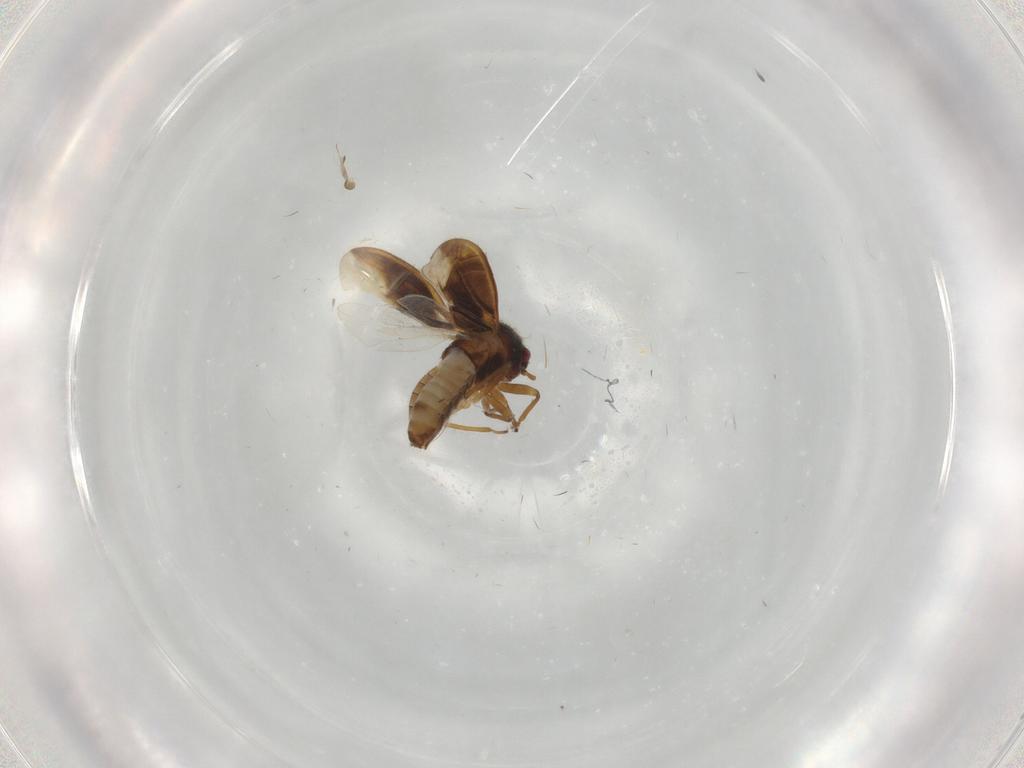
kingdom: Animalia
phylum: Arthropoda
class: Insecta
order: Hemiptera
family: Schizopteridae
